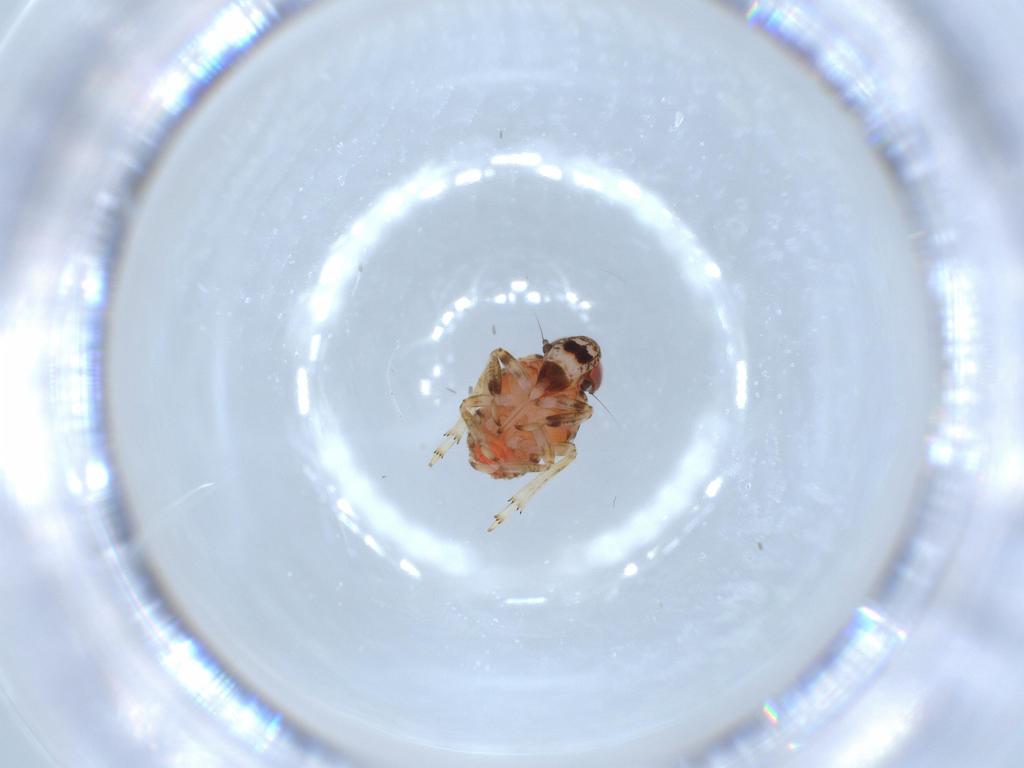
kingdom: Animalia
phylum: Arthropoda
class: Insecta
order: Hemiptera
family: Issidae
